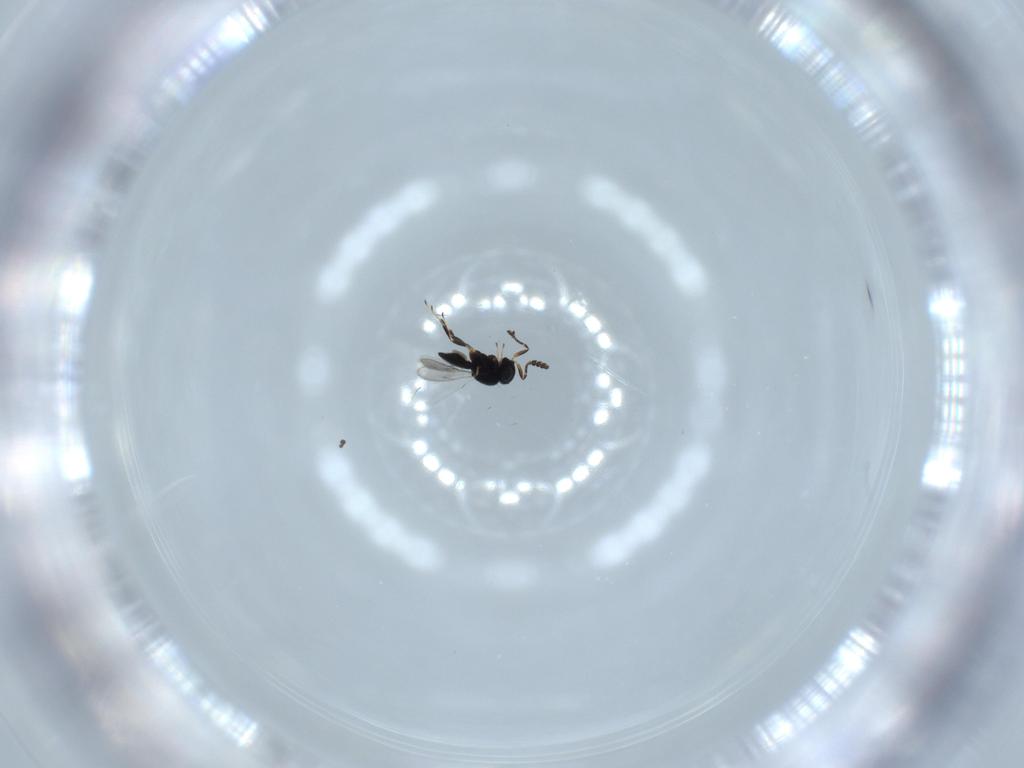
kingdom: Animalia
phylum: Arthropoda
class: Insecta
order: Hymenoptera
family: Scelionidae
